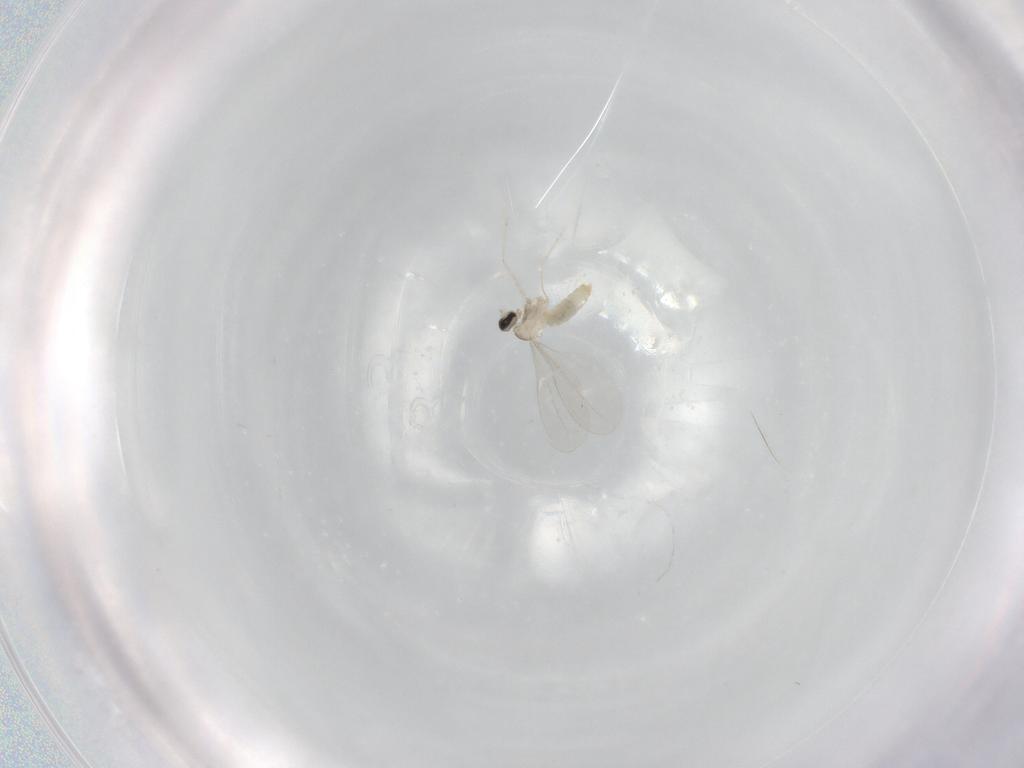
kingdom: Animalia
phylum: Arthropoda
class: Insecta
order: Diptera
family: Cecidomyiidae
